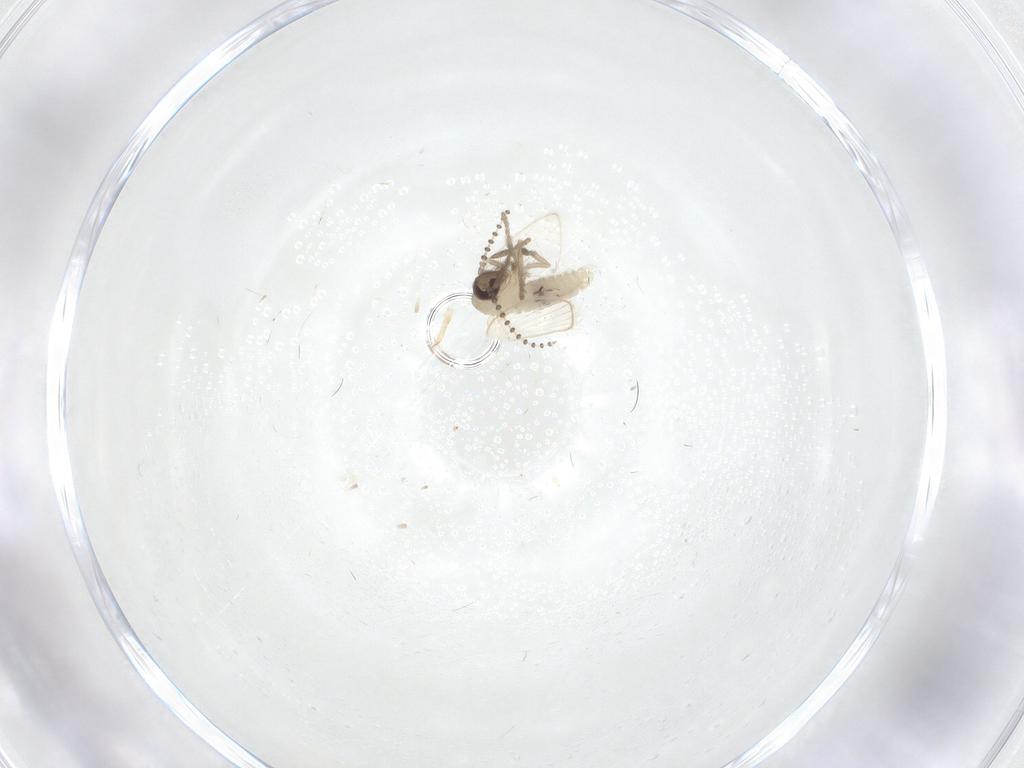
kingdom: Animalia
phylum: Arthropoda
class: Insecta
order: Diptera
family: Psychodidae
